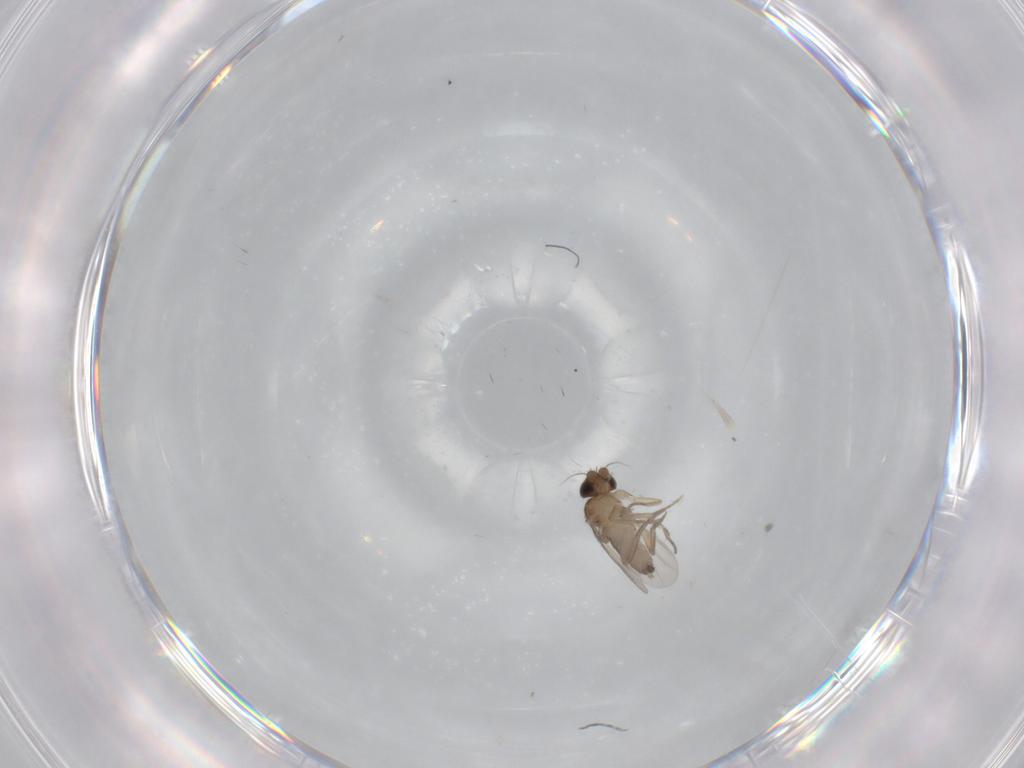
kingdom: Animalia
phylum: Arthropoda
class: Insecta
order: Diptera
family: Phoridae
